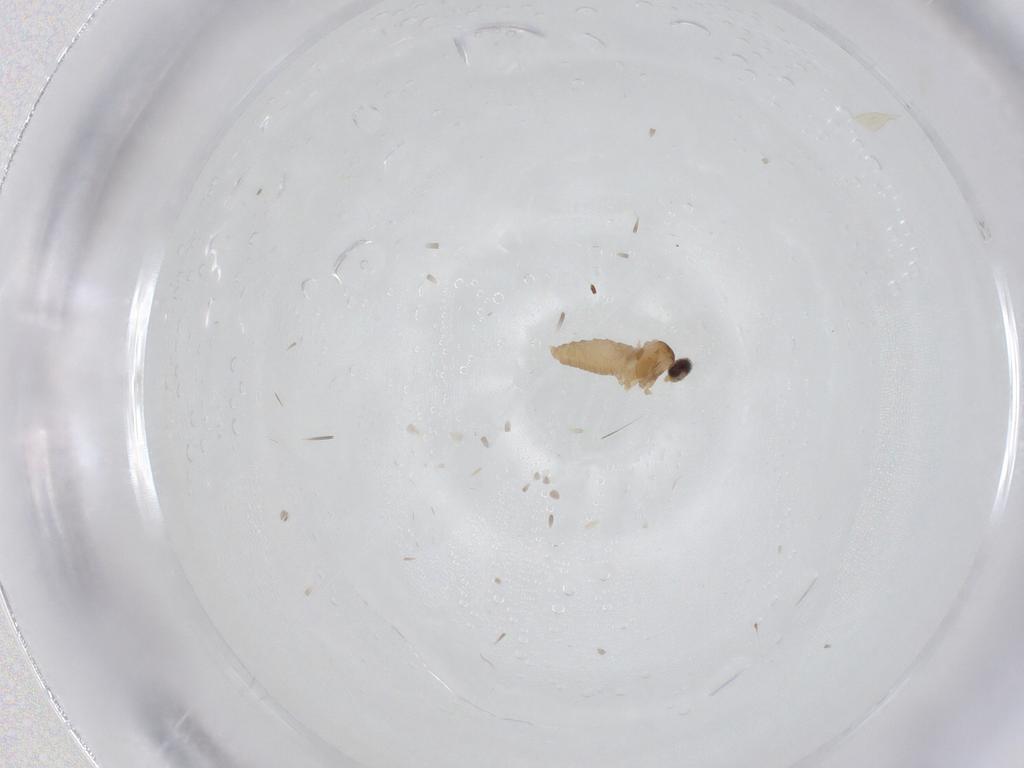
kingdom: Animalia
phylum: Arthropoda
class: Insecta
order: Diptera
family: Cecidomyiidae
